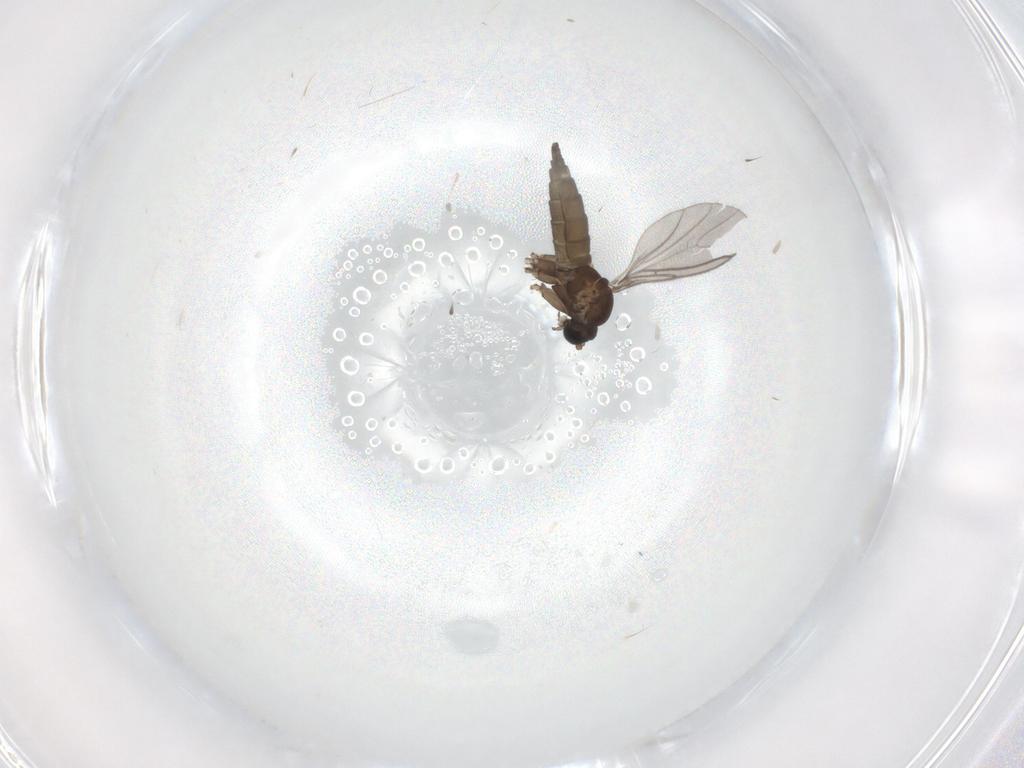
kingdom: Animalia
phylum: Arthropoda
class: Insecta
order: Diptera
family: Sciaridae
